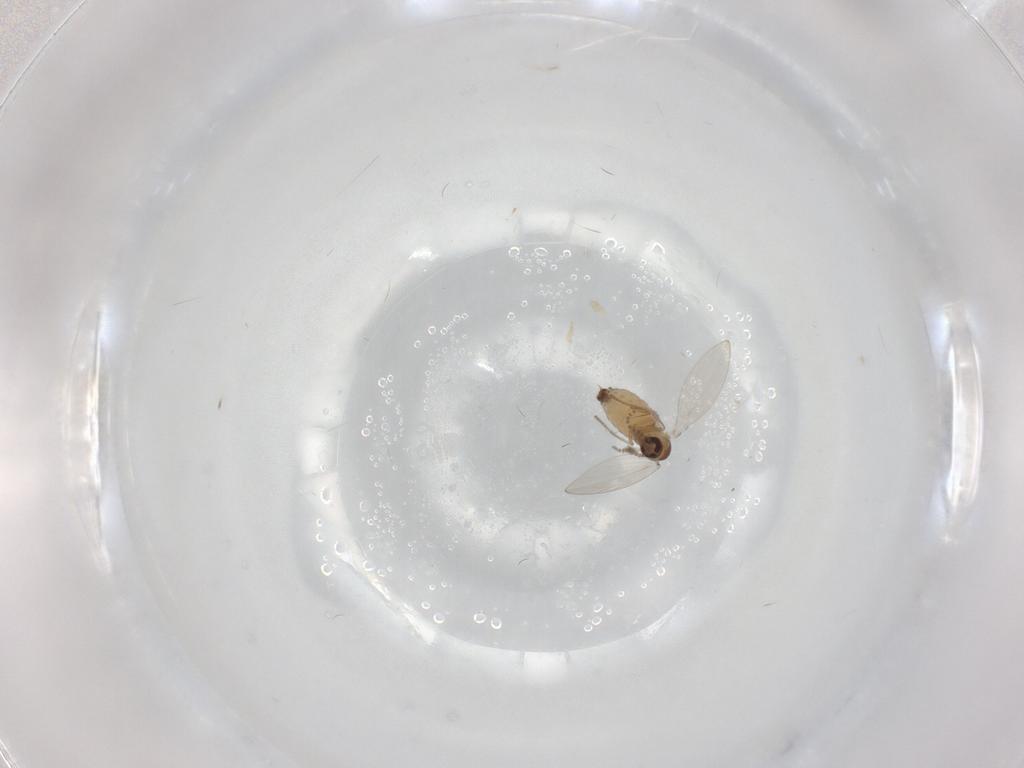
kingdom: Animalia
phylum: Arthropoda
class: Insecta
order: Diptera
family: Psychodidae
